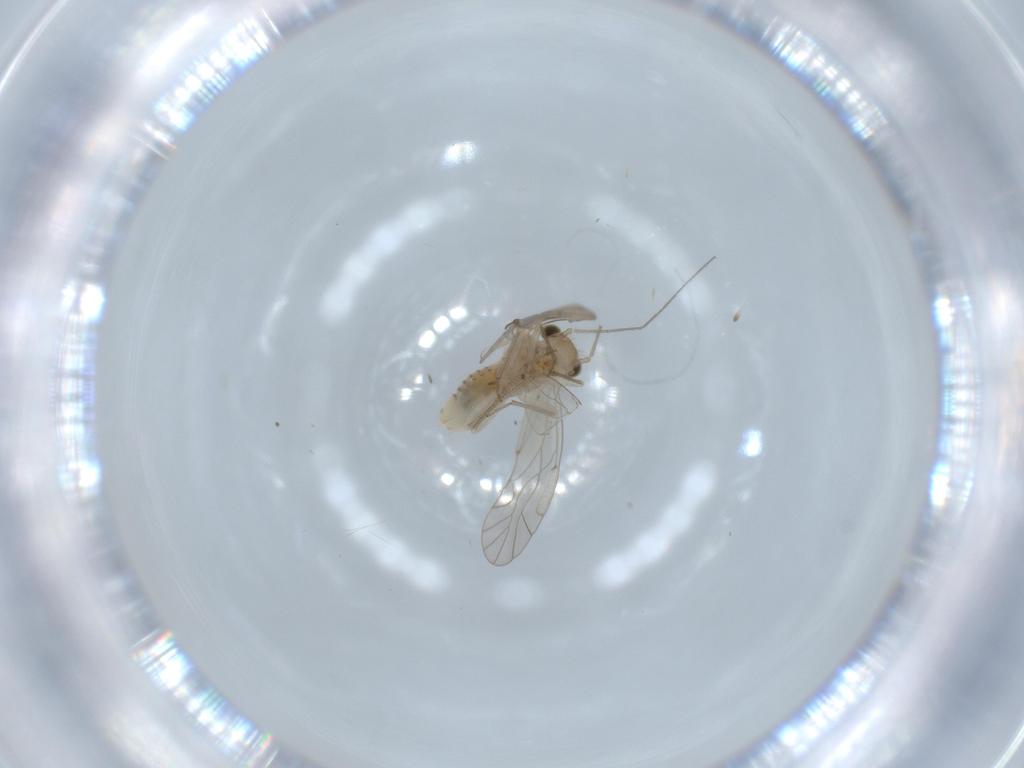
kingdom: Animalia
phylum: Arthropoda
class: Insecta
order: Psocodea
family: Lachesillidae
